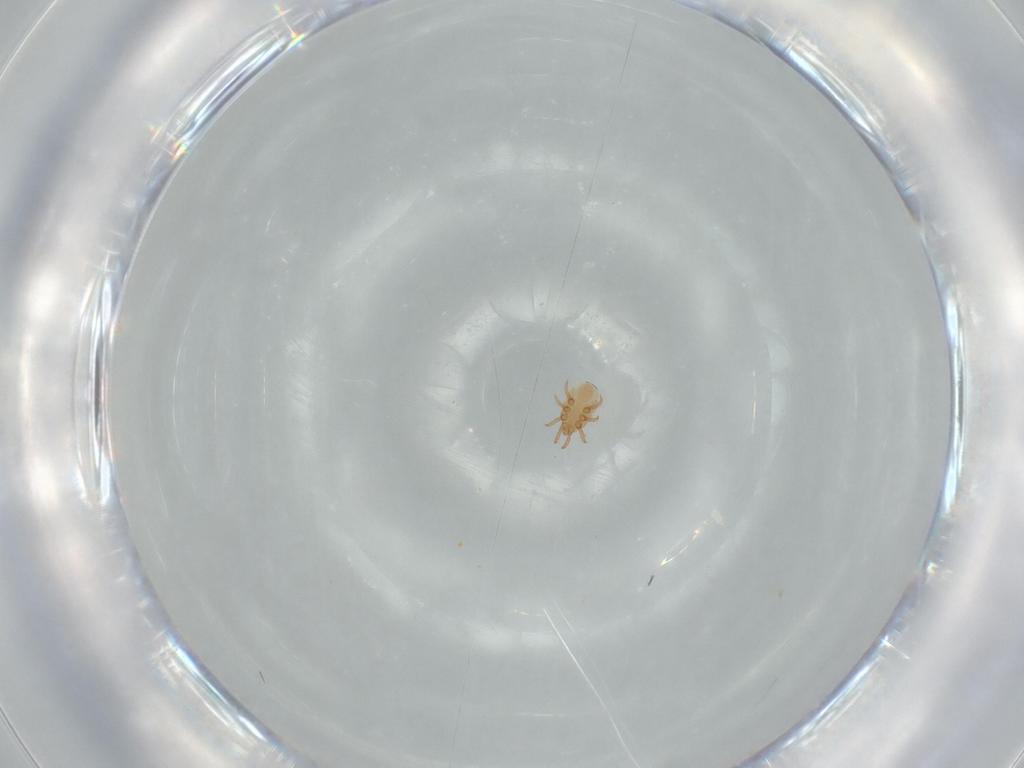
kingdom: Animalia
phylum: Arthropoda
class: Arachnida
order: Mesostigmata
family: Dinychidae
